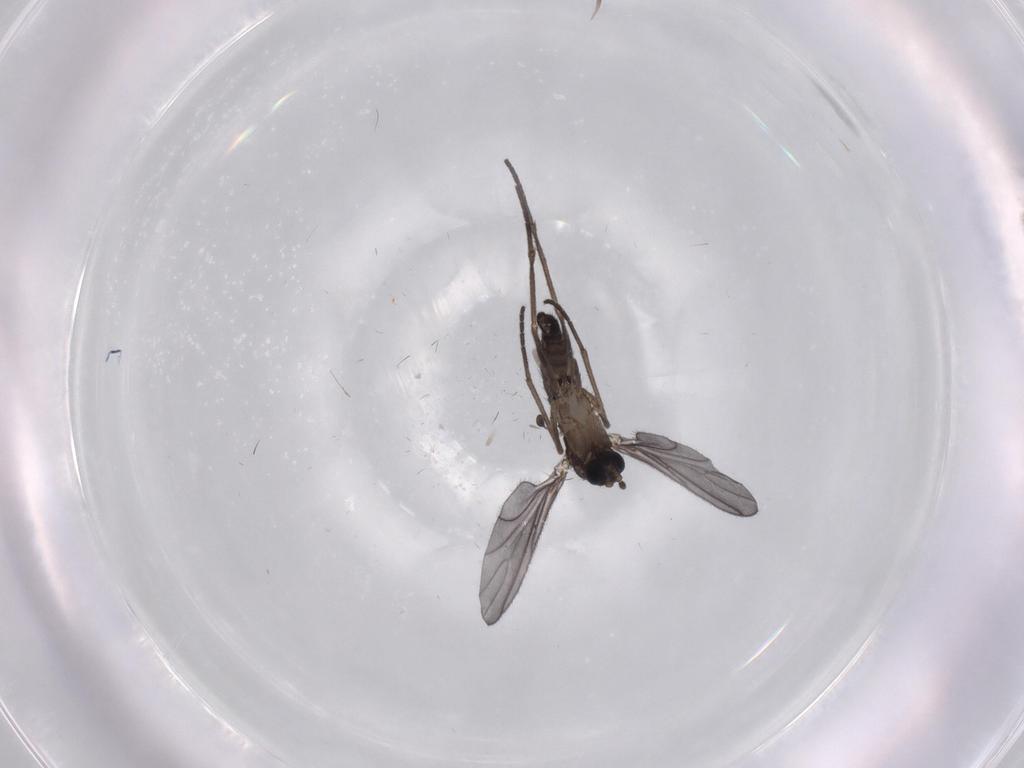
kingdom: Animalia
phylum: Arthropoda
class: Insecta
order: Diptera
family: Sciaridae
